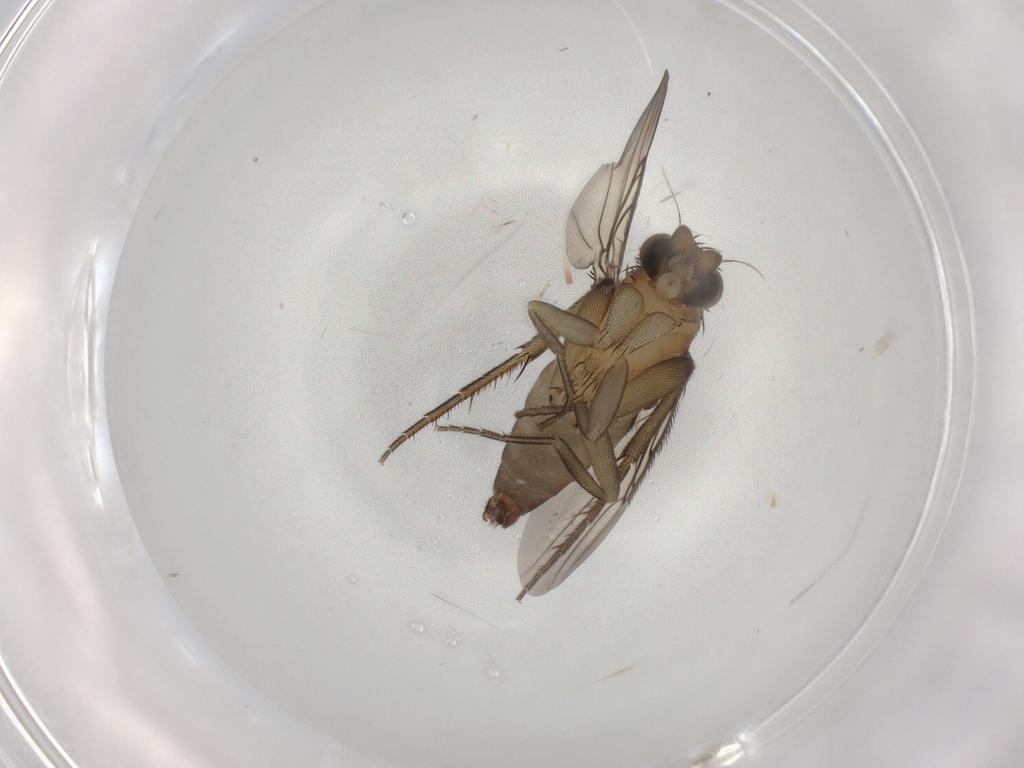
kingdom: Animalia
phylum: Arthropoda
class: Insecta
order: Diptera
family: Phoridae
